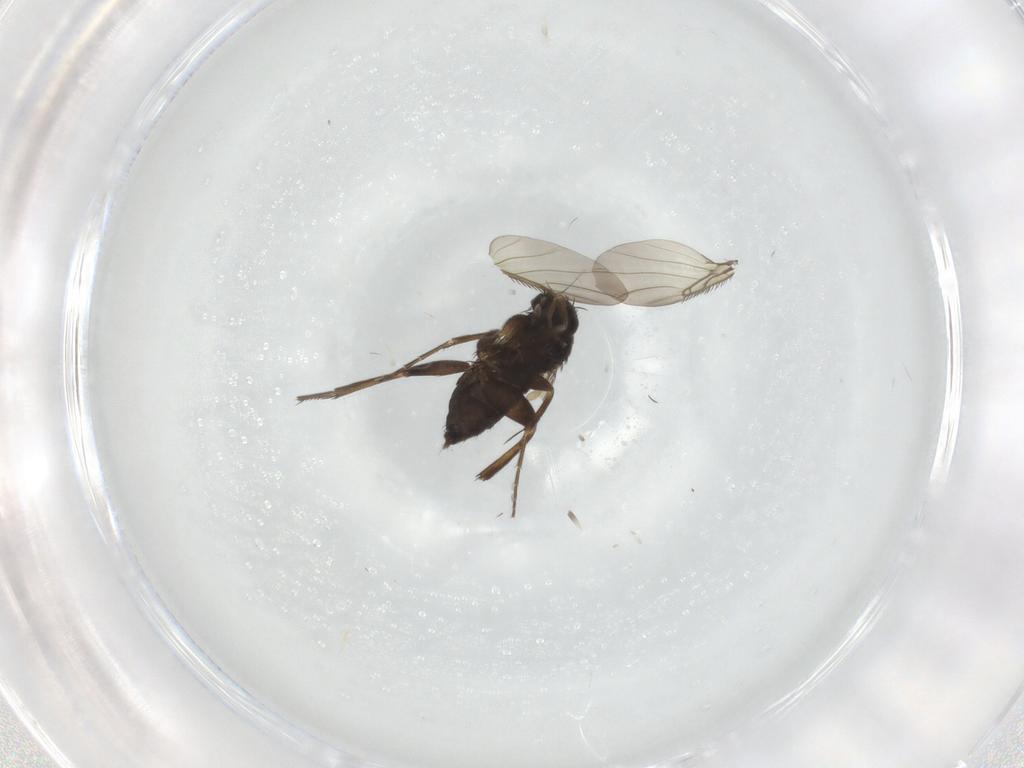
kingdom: Animalia
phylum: Arthropoda
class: Insecta
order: Diptera
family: Phoridae
